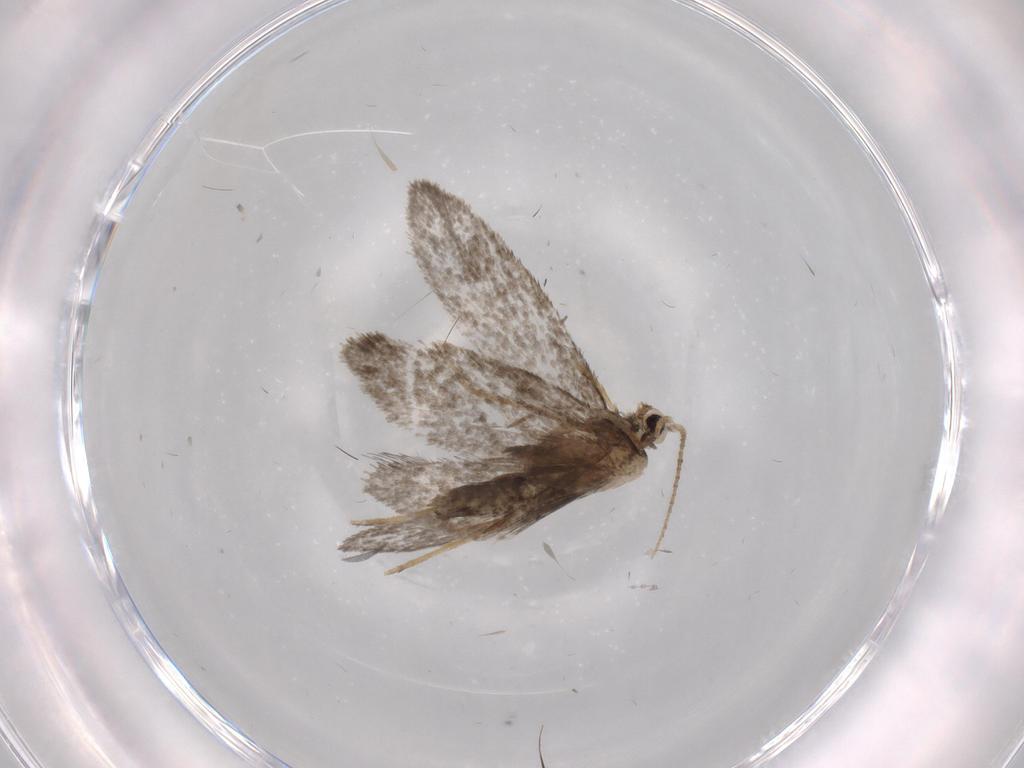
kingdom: Animalia
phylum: Arthropoda
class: Insecta
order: Lepidoptera
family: Psychidae
